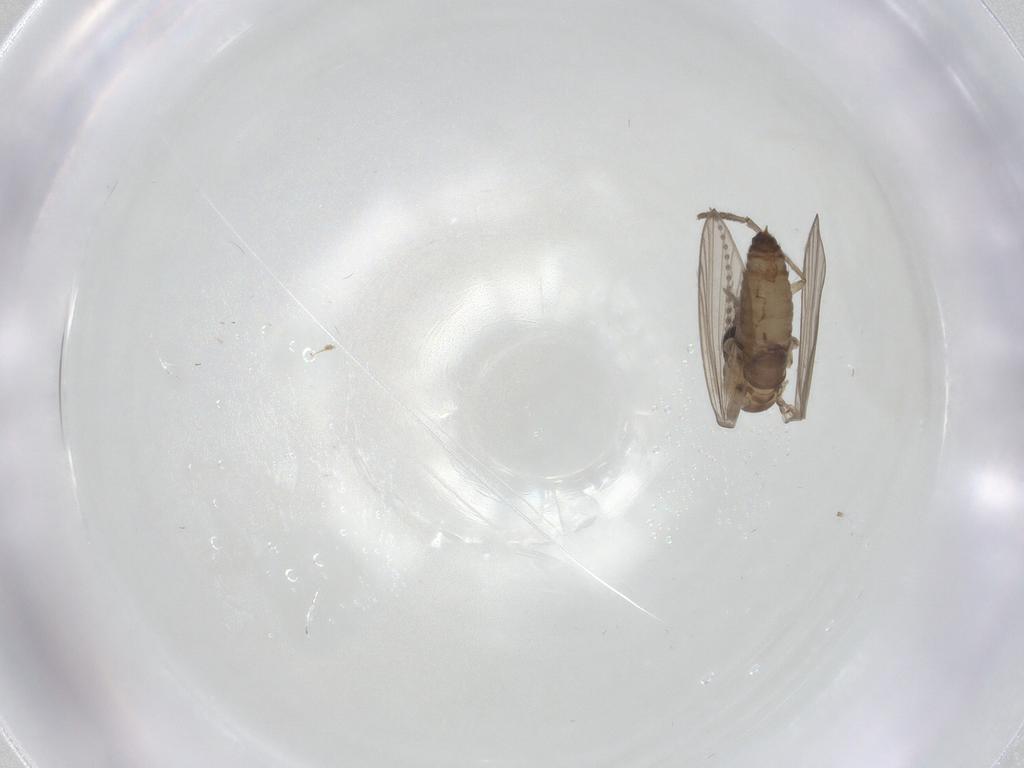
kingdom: Animalia
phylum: Arthropoda
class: Insecta
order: Diptera
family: Psychodidae
